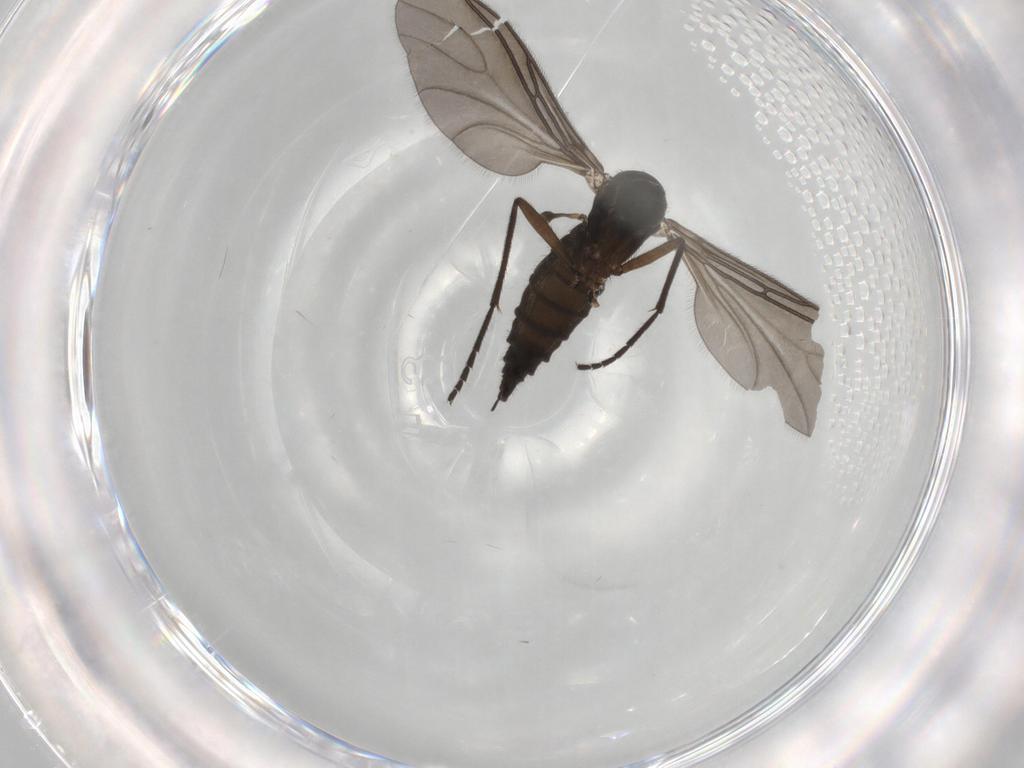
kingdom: Animalia
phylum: Arthropoda
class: Insecta
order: Diptera
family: Sciaridae
